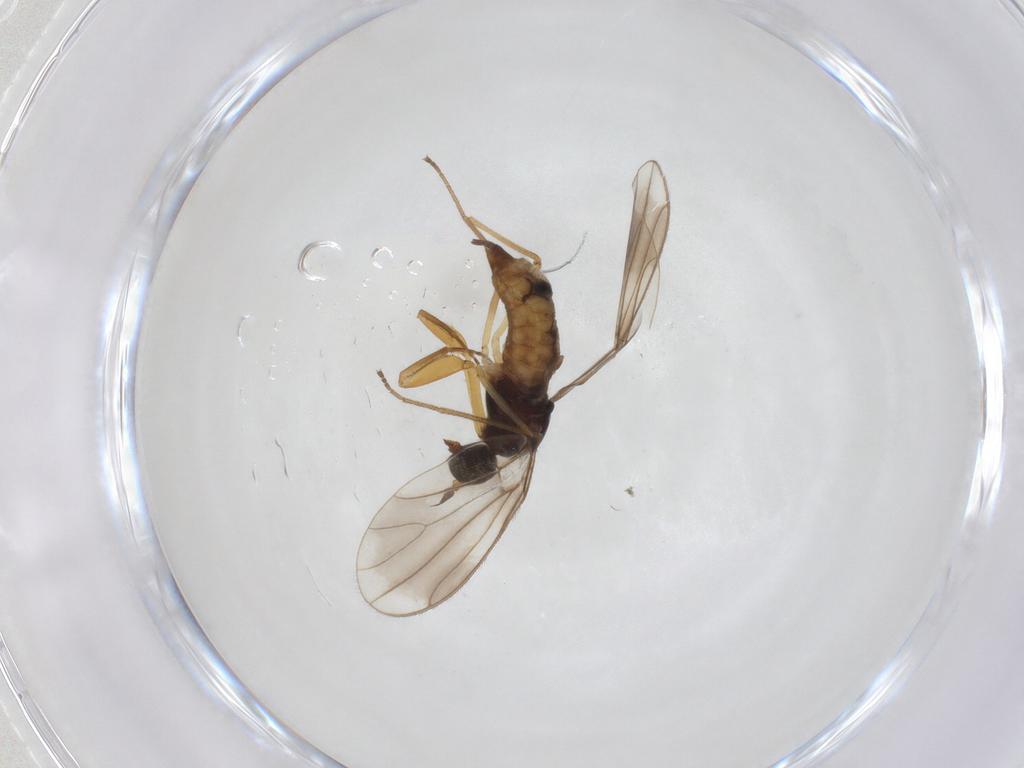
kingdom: Animalia
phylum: Arthropoda
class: Insecta
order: Diptera
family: Empididae
